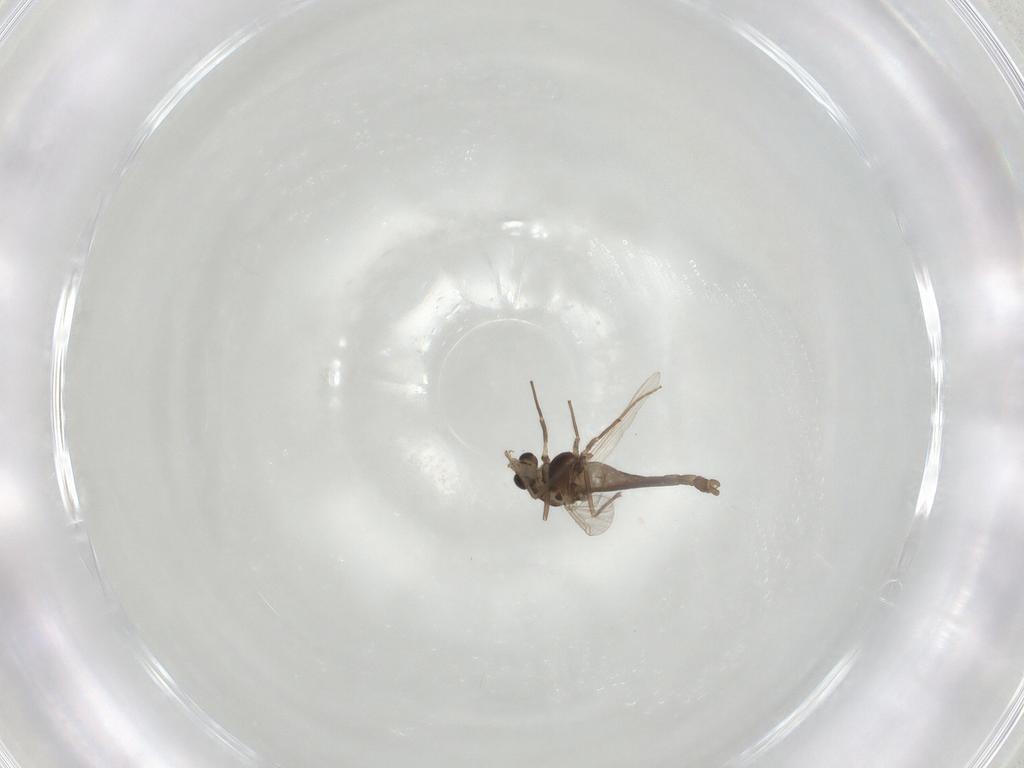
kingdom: Animalia
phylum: Arthropoda
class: Insecta
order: Diptera
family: Chironomidae
